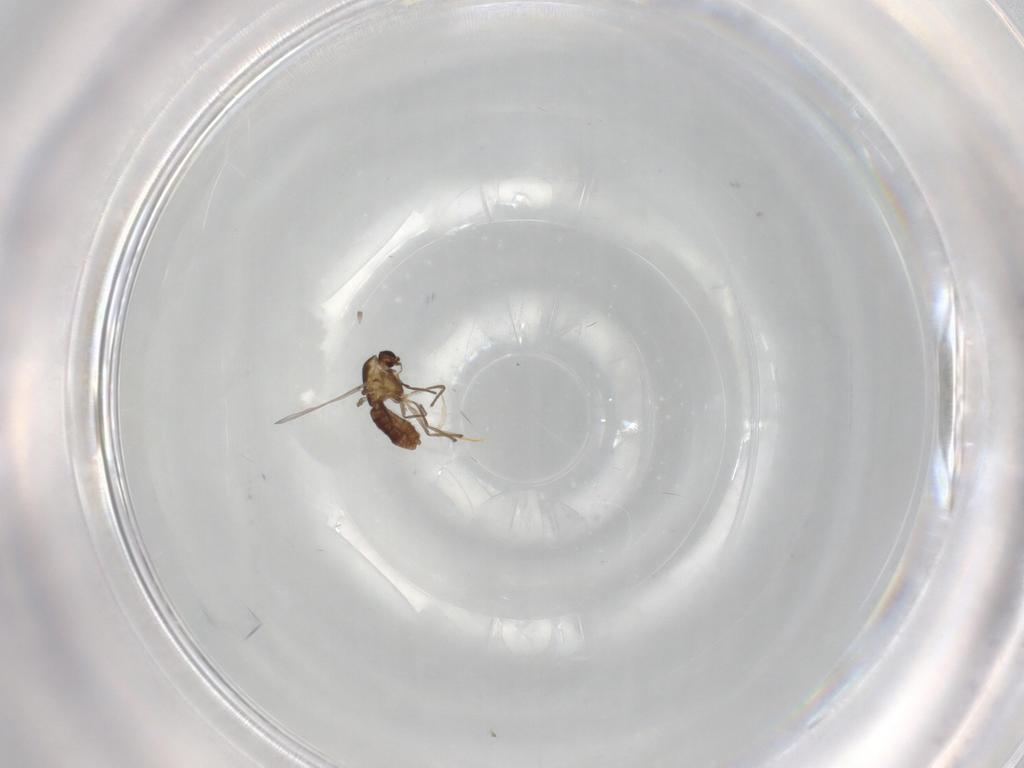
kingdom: Animalia
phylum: Arthropoda
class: Insecta
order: Diptera
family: Chironomidae
